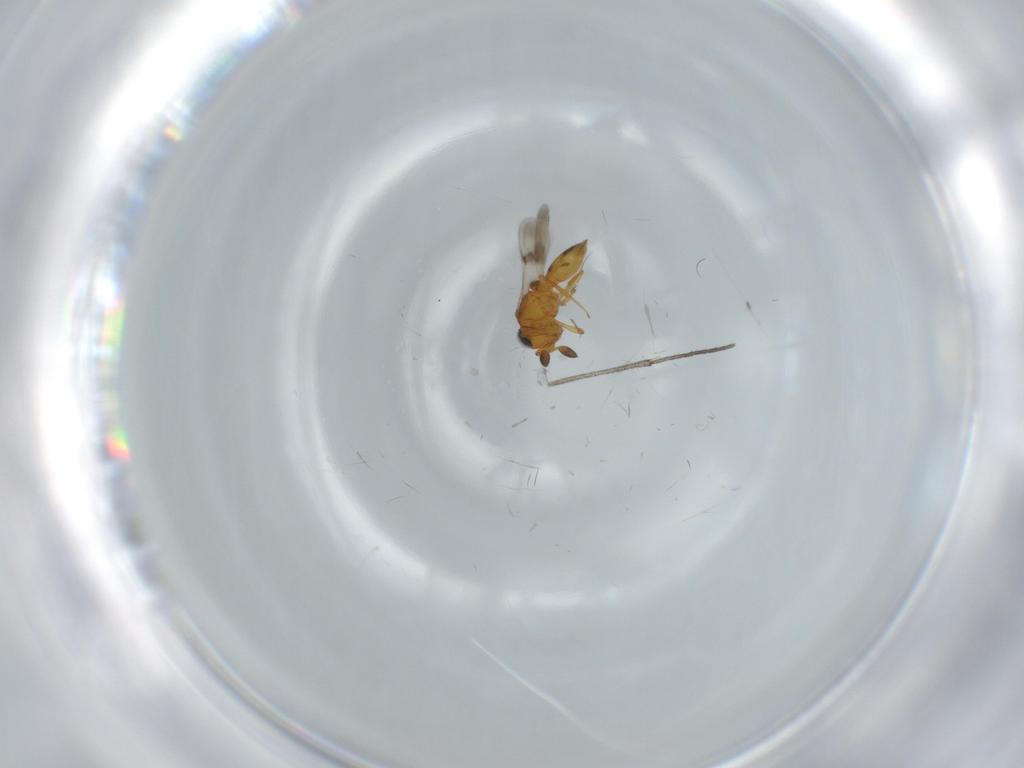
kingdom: Animalia
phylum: Arthropoda
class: Insecta
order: Hymenoptera
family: Scelionidae
